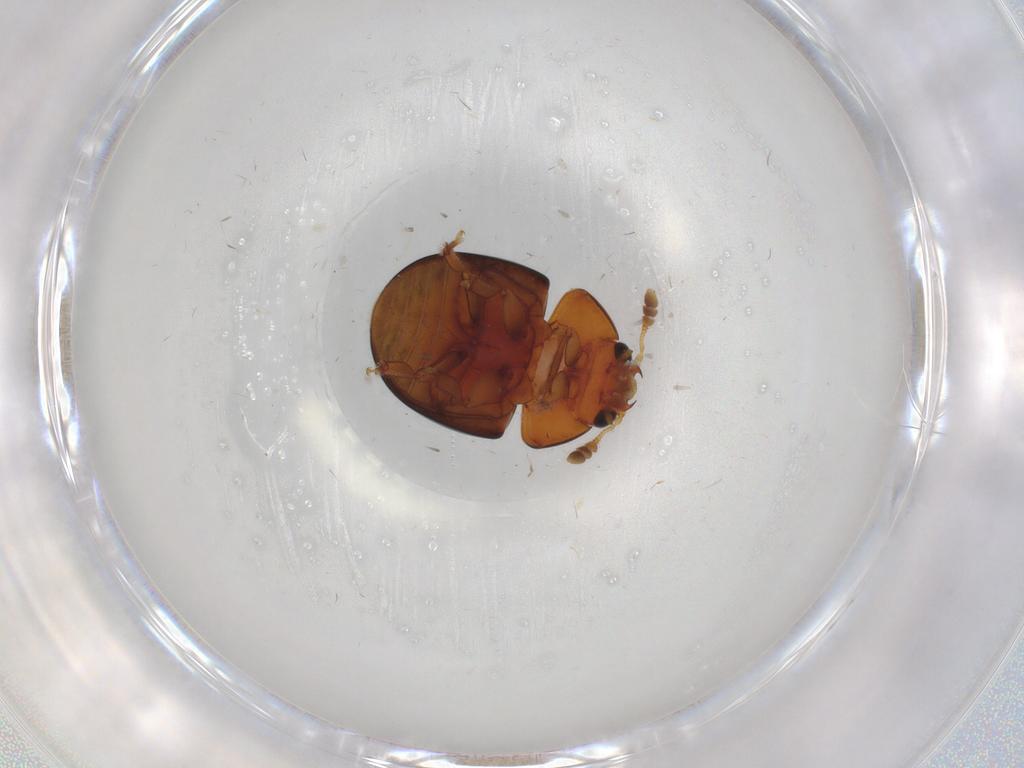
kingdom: Animalia
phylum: Arthropoda
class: Insecta
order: Coleoptera
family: Phalacridae
